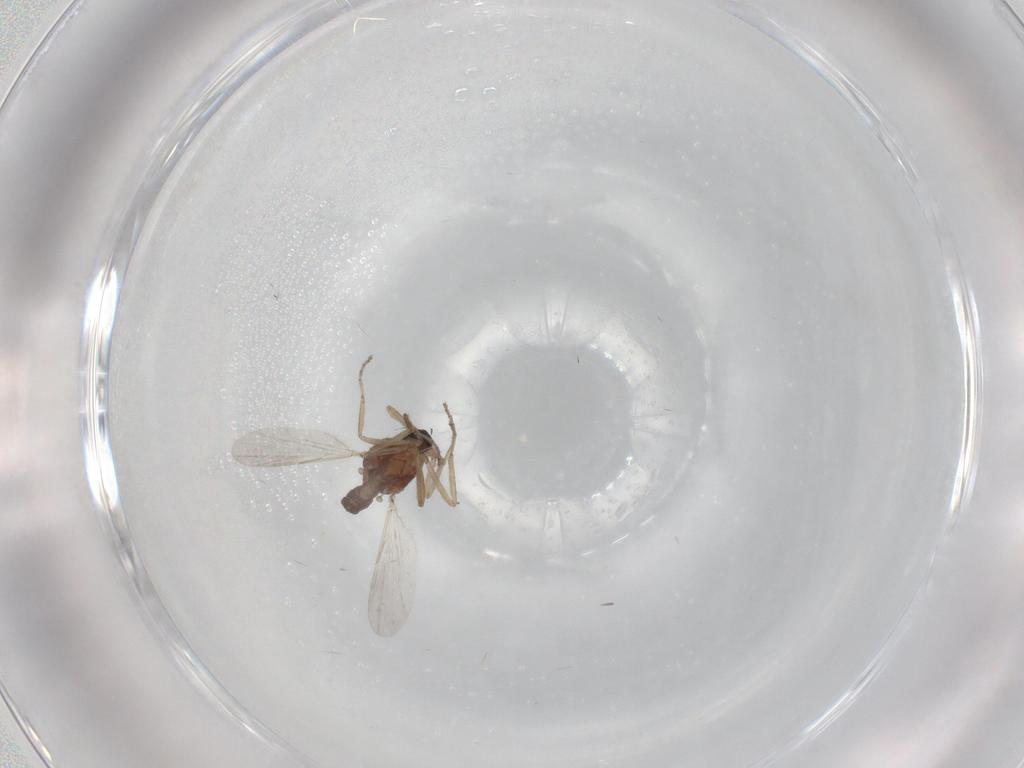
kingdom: Animalia
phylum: Arthropoda
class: Insecta
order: Diptera
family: Ceratopogonidae
